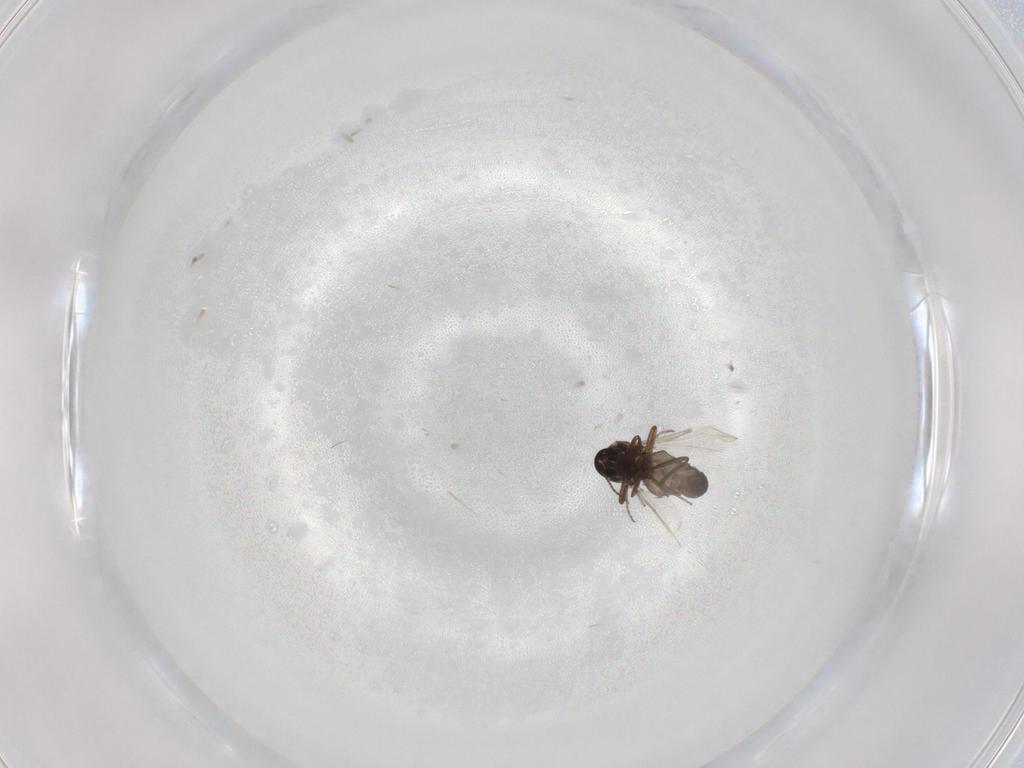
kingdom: Animalia
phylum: Arthropoda
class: Insecta
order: Diptera
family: Ceratopogonidae
